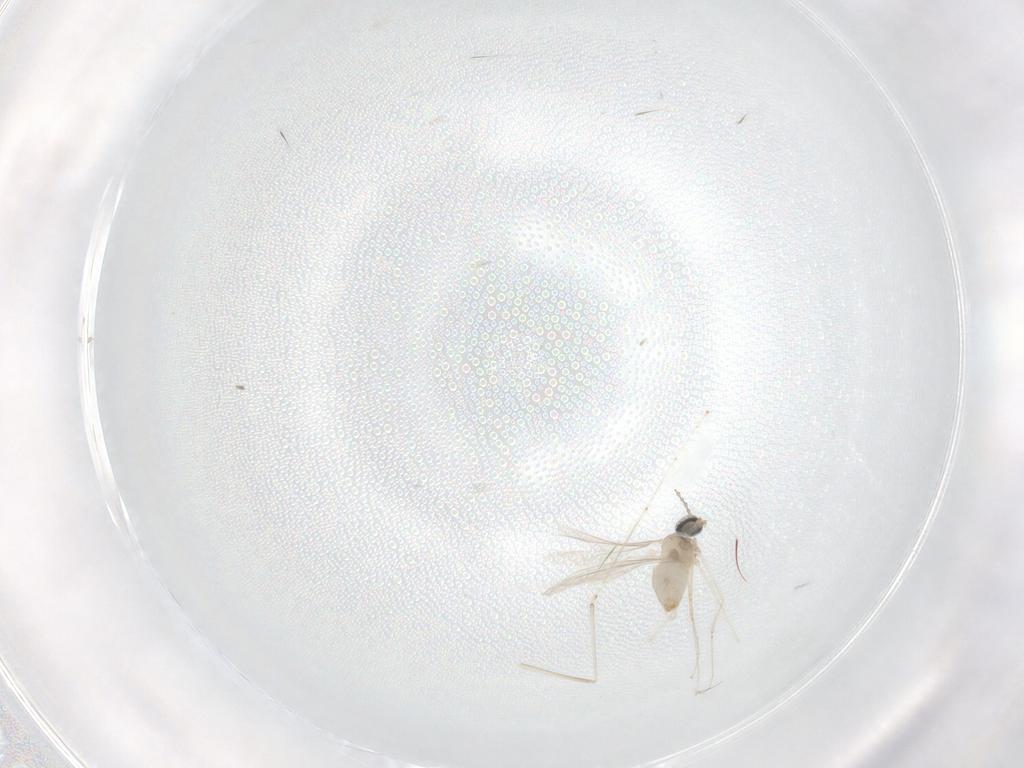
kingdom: Animalia
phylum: Arthropoda
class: Insecta
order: Diptera
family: Cecidomyiidae
